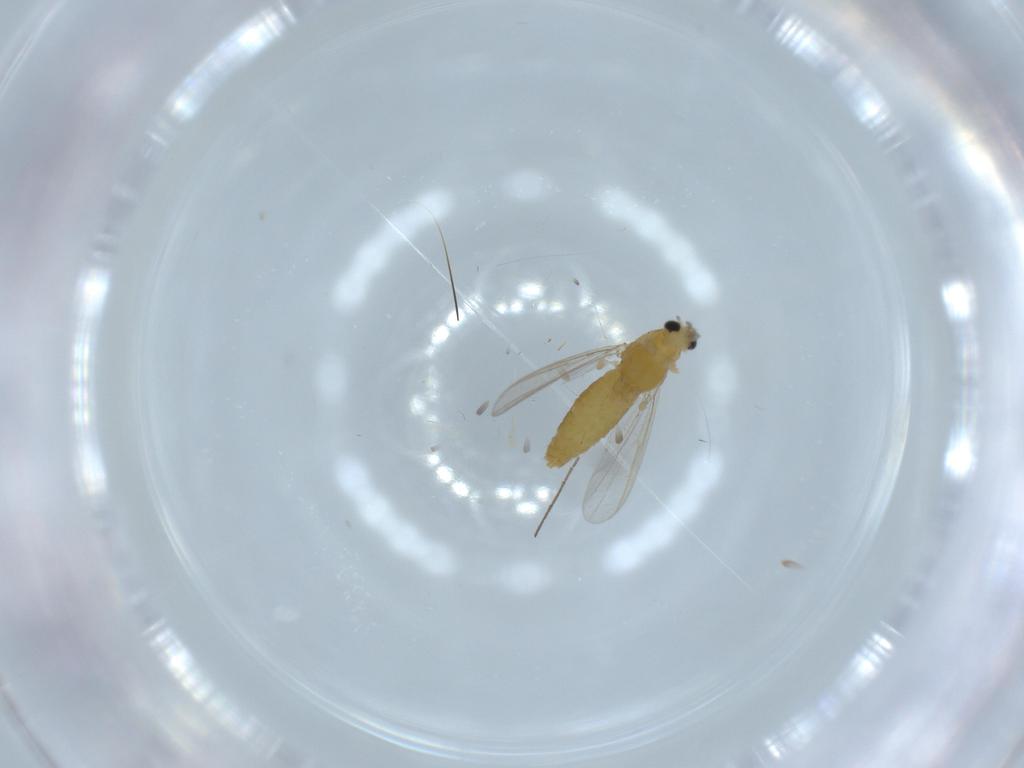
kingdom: Animalia
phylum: Arthropoda
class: Insecta
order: Diptera
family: Chironomidae
